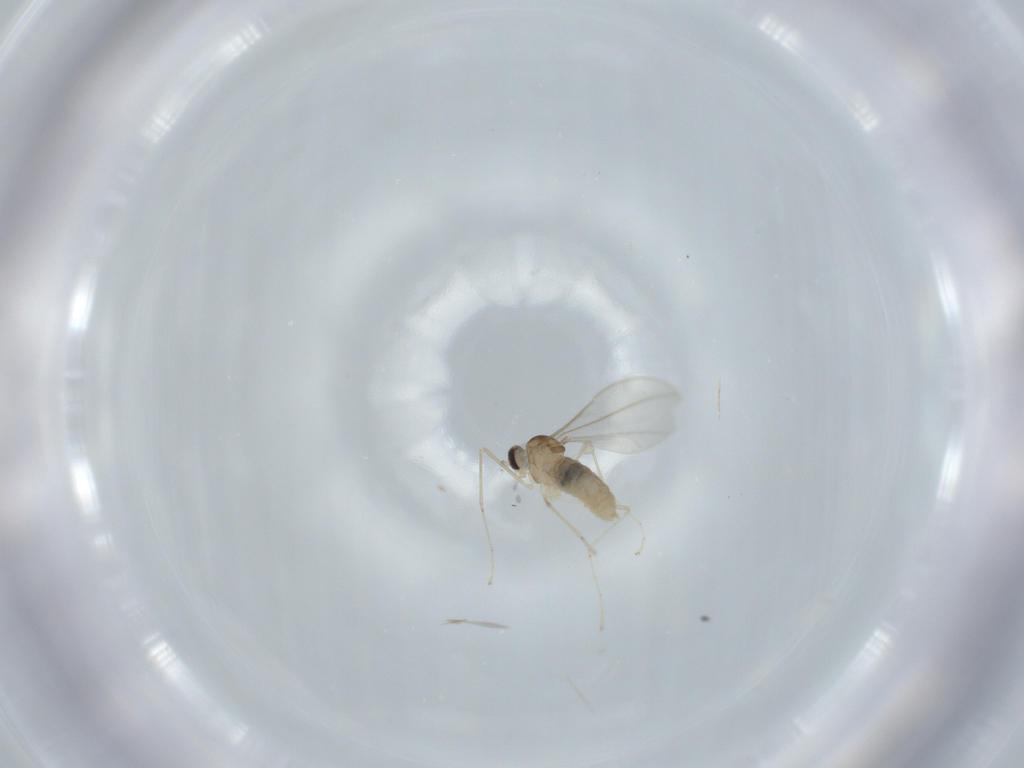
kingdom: Animalia
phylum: Arthropoda
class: Insecta
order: Diptera
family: Cecidomyiidae
